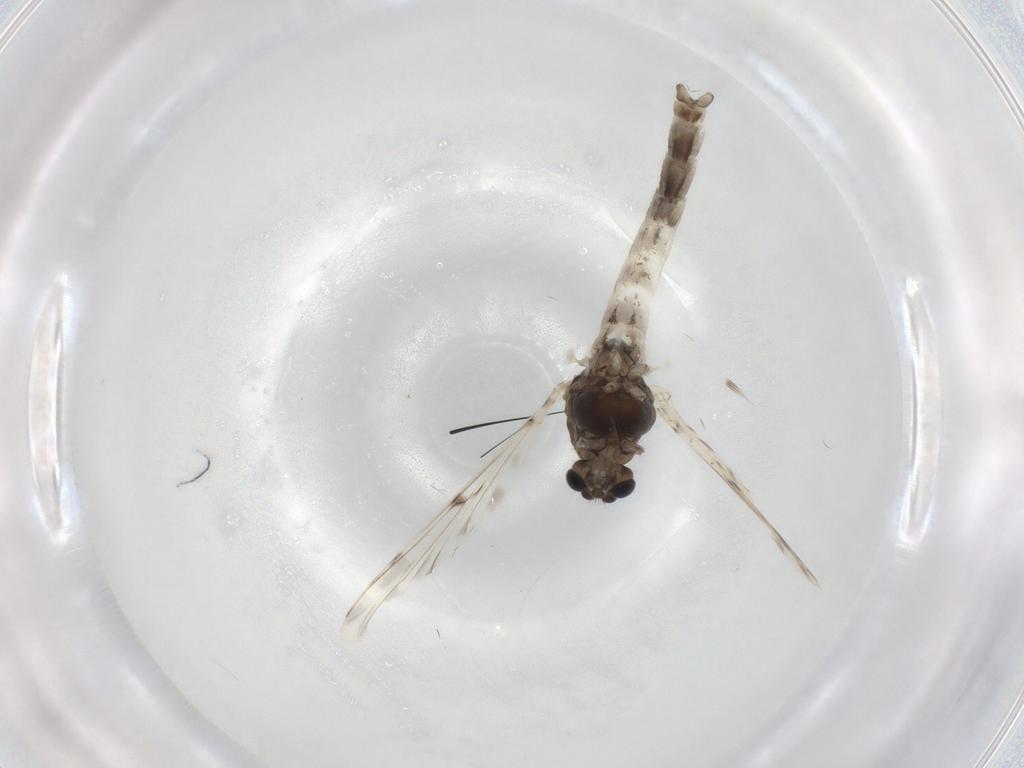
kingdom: Animalia
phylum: Arthropoda
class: Insecta
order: Diptera
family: Chironomidae
